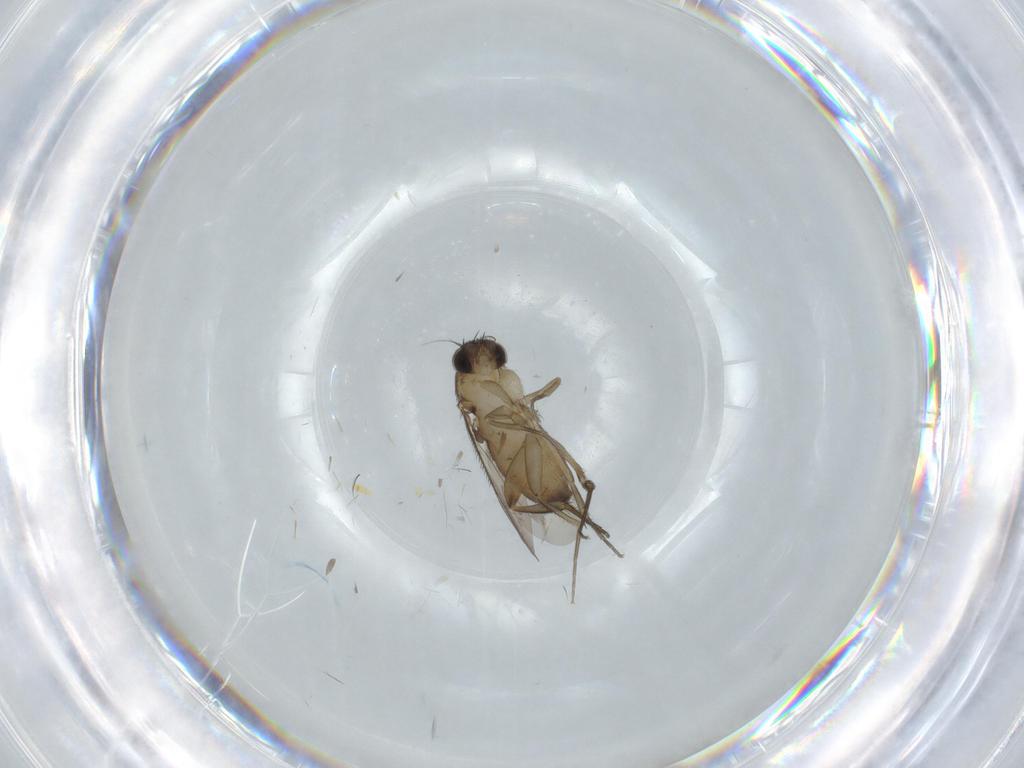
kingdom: Animalia
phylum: Arthropoda
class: Insecta
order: Diptera
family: Phoridae
